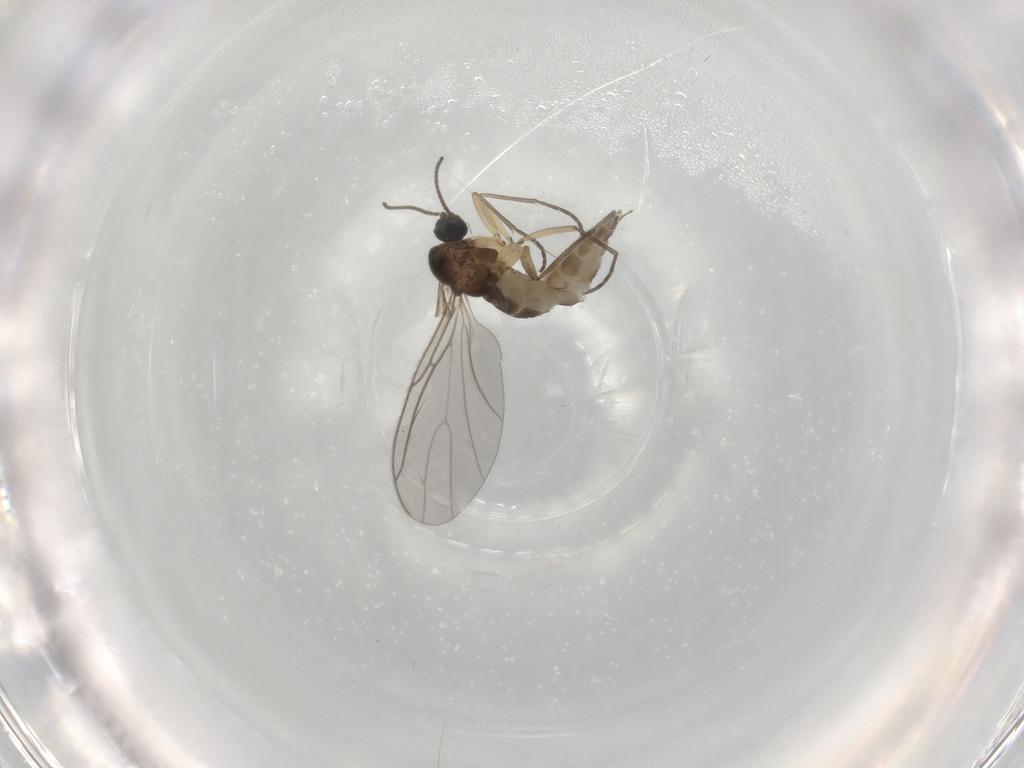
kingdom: Animalia
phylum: Arthropoda
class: Insecta
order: Diptera
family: Sciaridae
